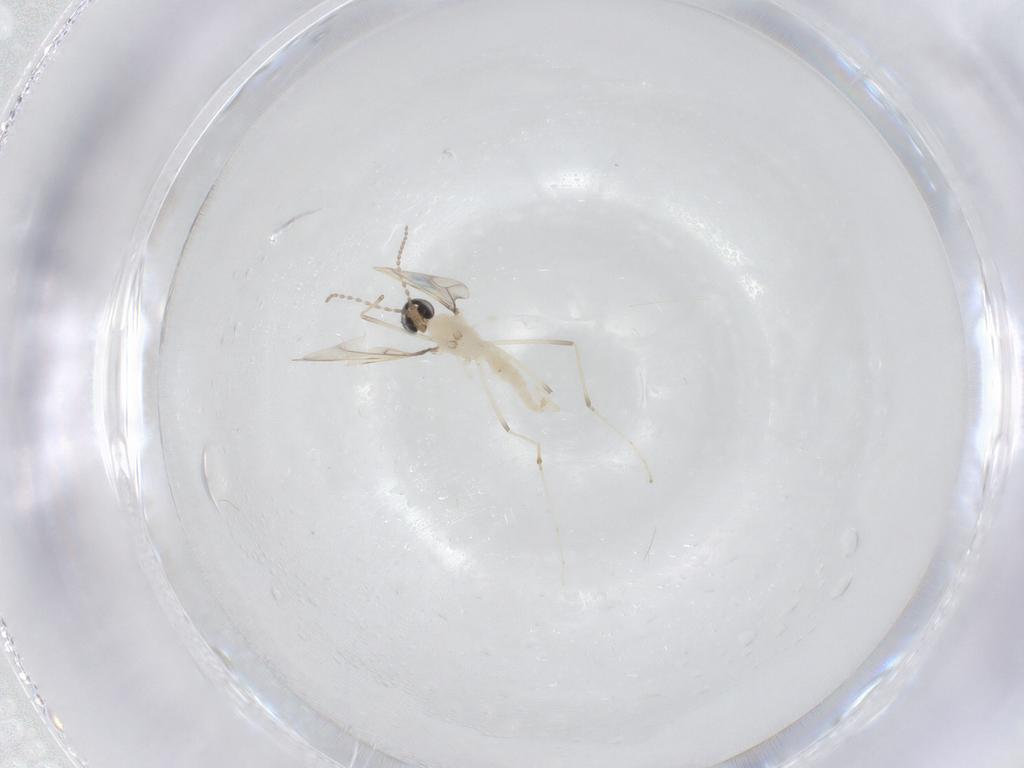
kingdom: Animalia
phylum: Arthropoda
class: Insecta
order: Diptera
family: Cecidomyiidae
